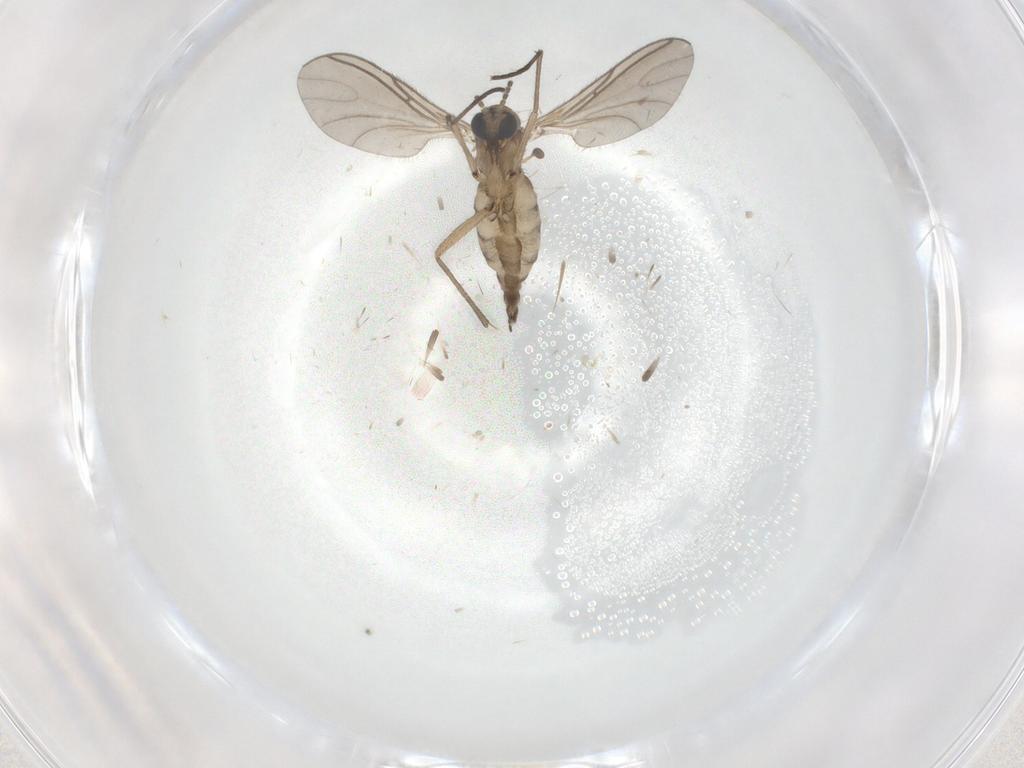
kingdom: Animalia
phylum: Arthropoda
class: Insecta
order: Diptera
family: Sciaridae
